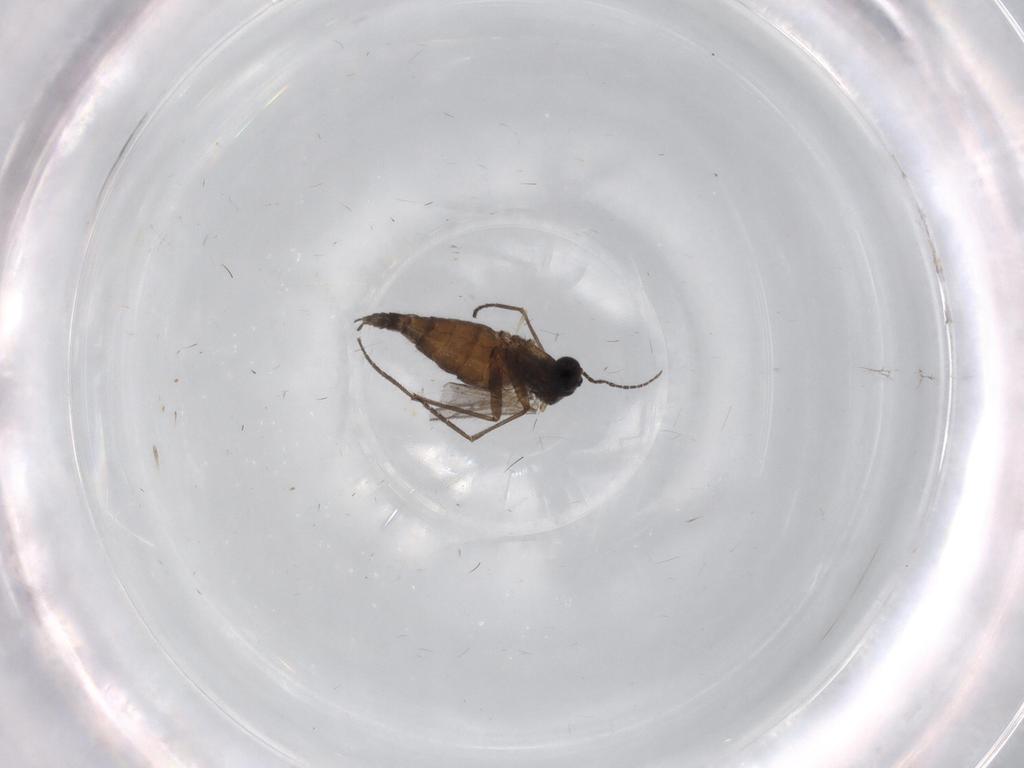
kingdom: Animalia
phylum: Arthropoda
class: Insecta
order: Diptera
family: Sciaridae
